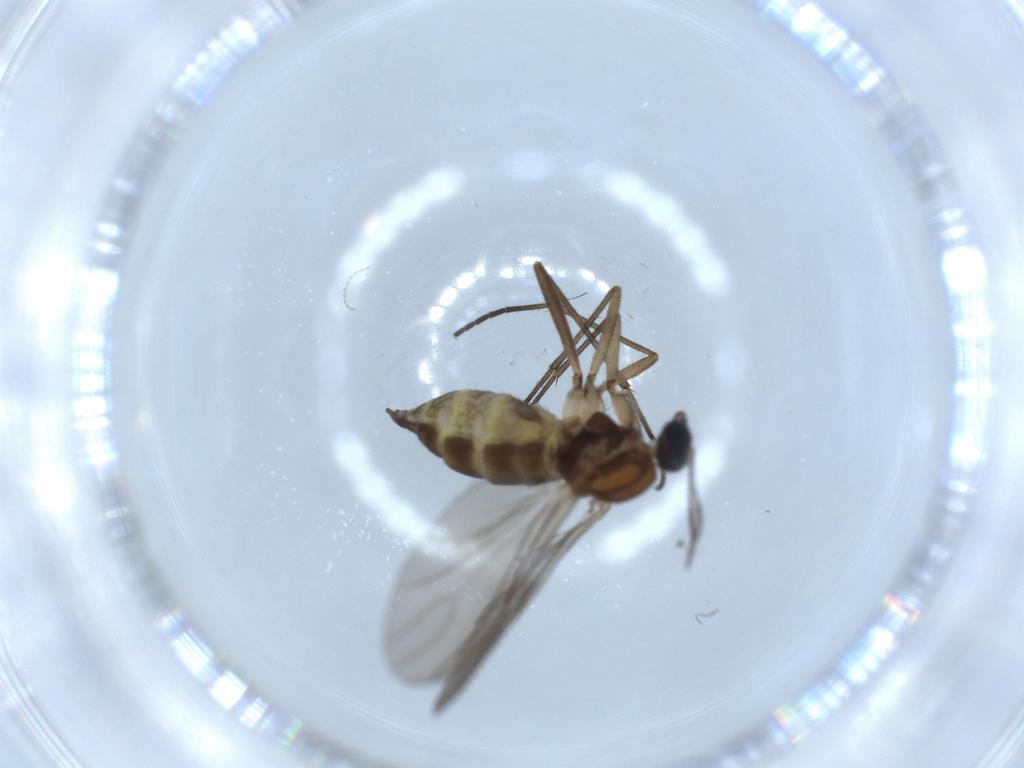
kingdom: Animalia
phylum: Arthropoda
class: Insecta
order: Diptera
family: Sciaridae
